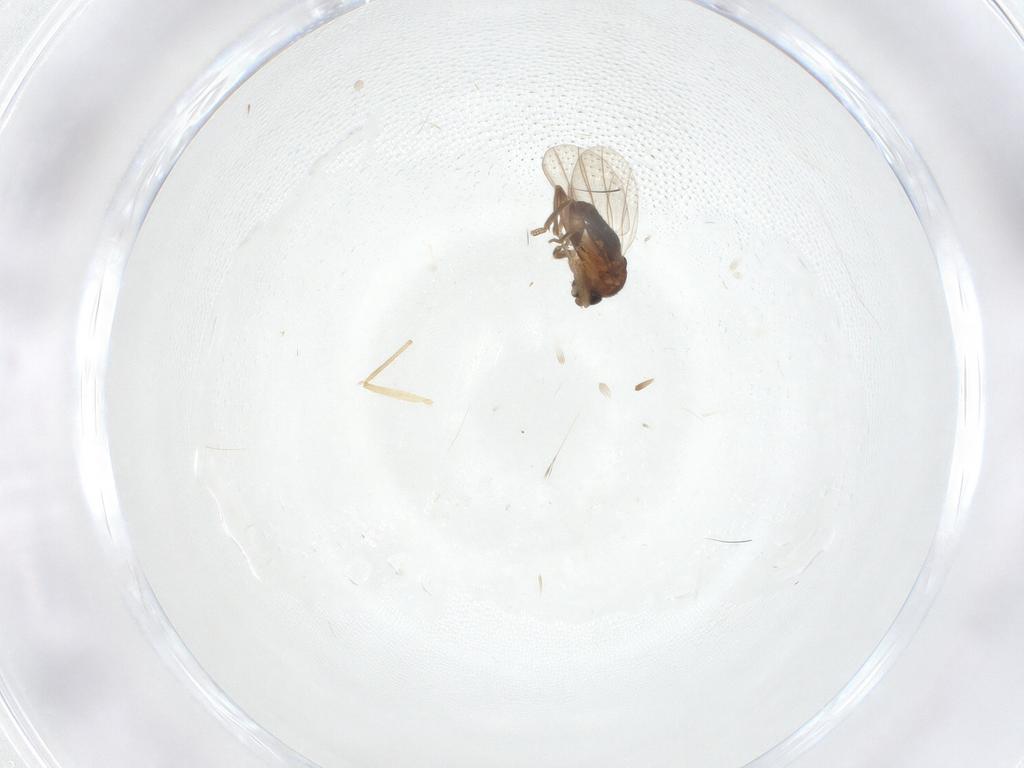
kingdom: Animalia
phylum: Arthropoda
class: Insecta
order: Diptera
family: Chironomidae
